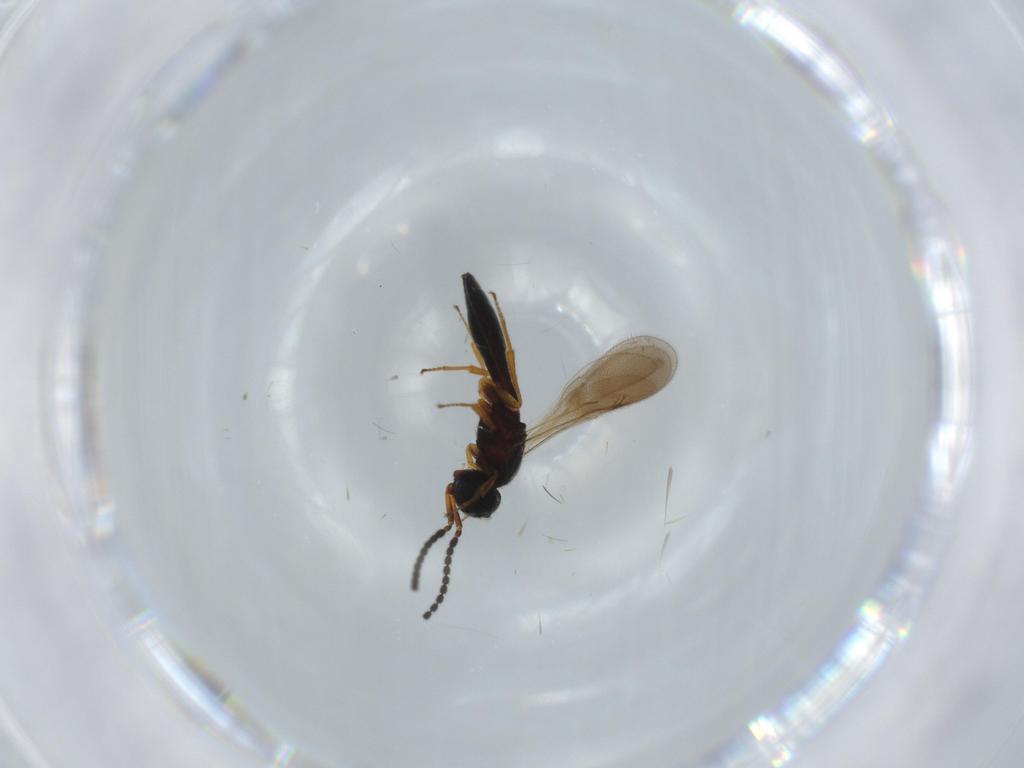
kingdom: Animalia
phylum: Arthropoda
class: Insecta
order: Hymenoptera
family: Scelionidae
